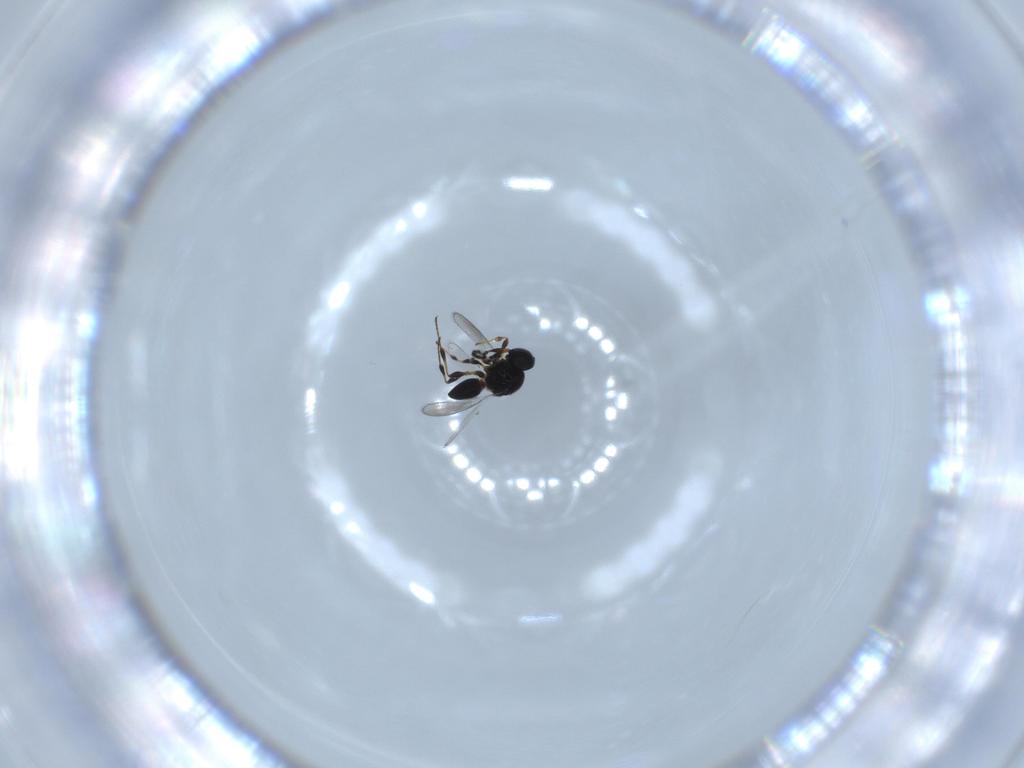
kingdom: Animalia
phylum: Arthropoda
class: Insecta
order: Hymenoptera
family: Platygastridae
